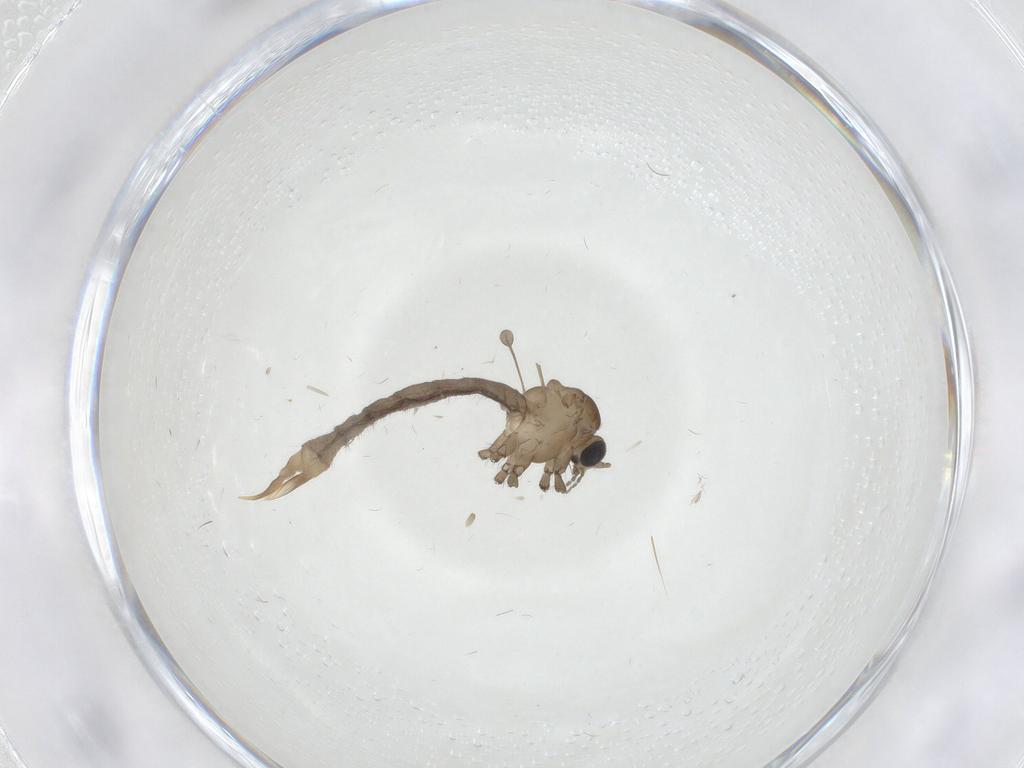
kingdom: Animalia
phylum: Arthropoda
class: Insecta
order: Diptera
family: Limoniidae
